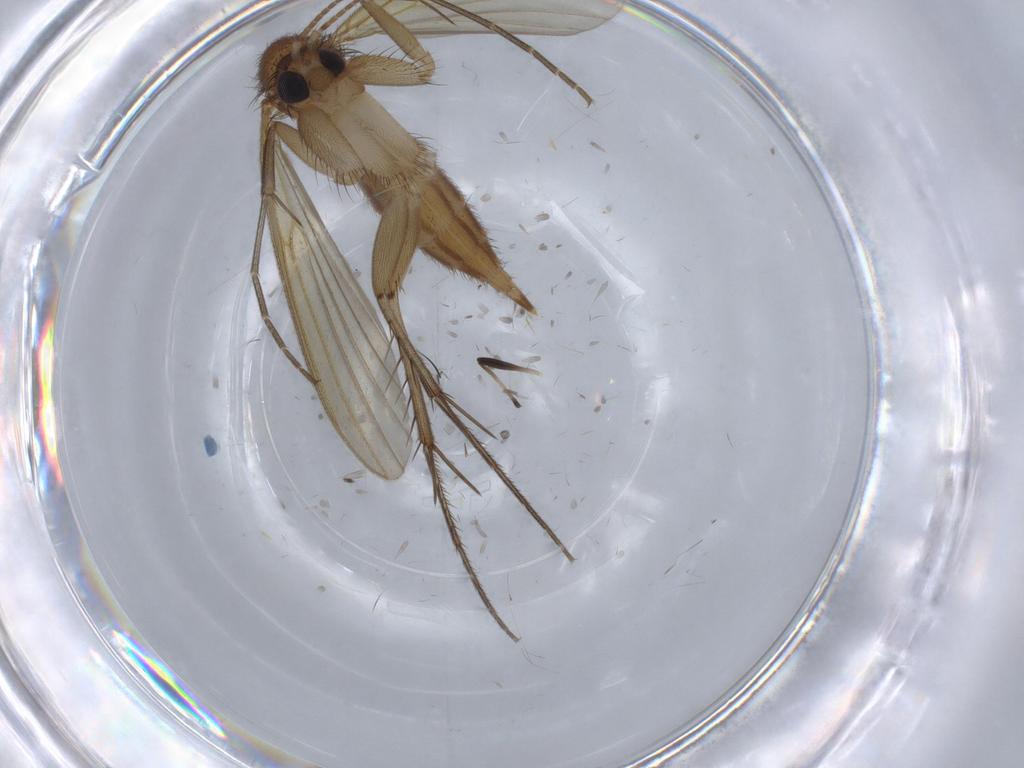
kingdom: Animalia
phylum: Arthropoda
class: Insecta
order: Diptera
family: Mycetophilidae
